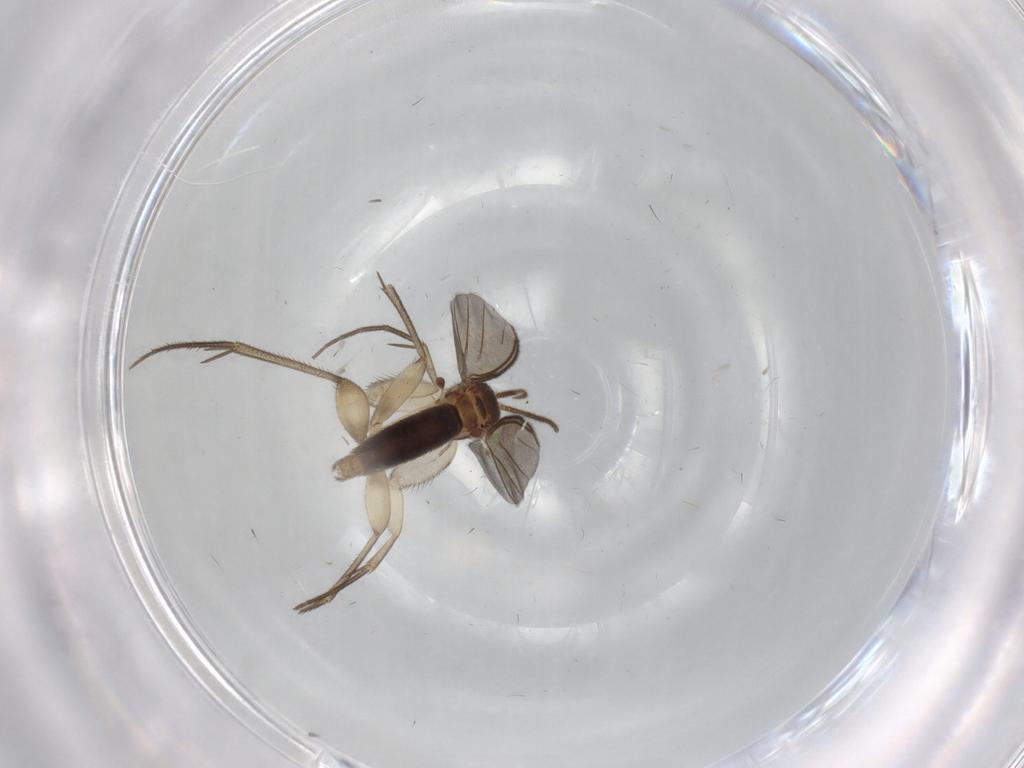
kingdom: Animalia
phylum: Arthropoda
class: Insecta
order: Diptera
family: Mycetophilidae
